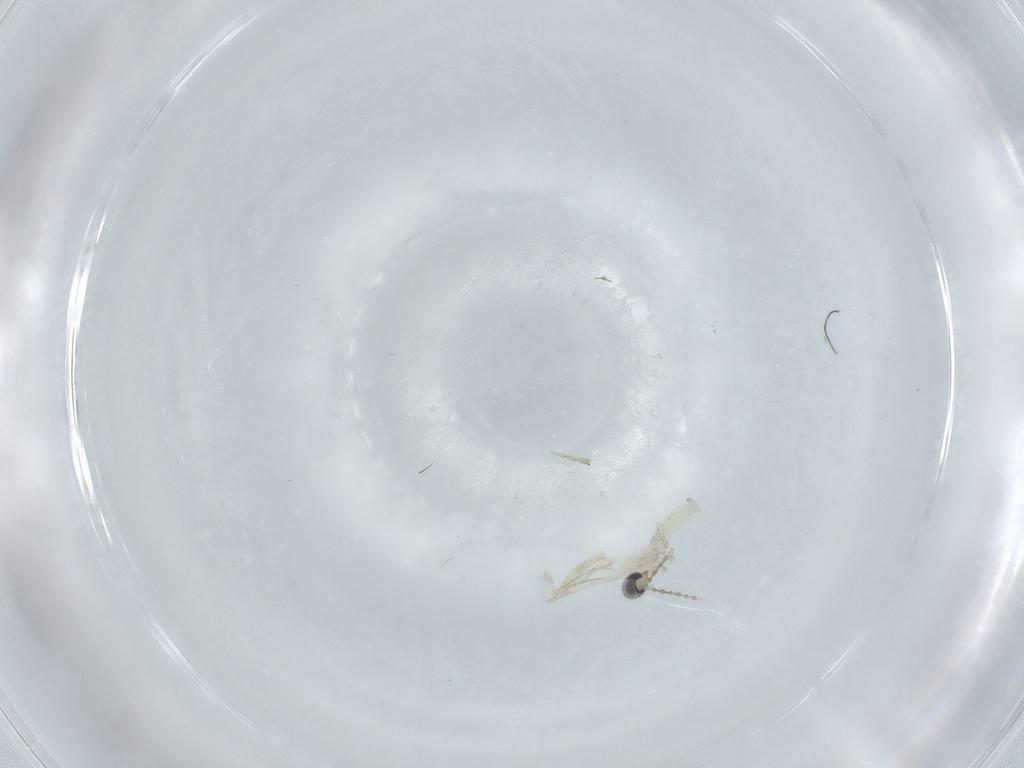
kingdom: Animalia
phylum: Arthropoda
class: Insecta
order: Diptera
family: Cecidomyiidae
